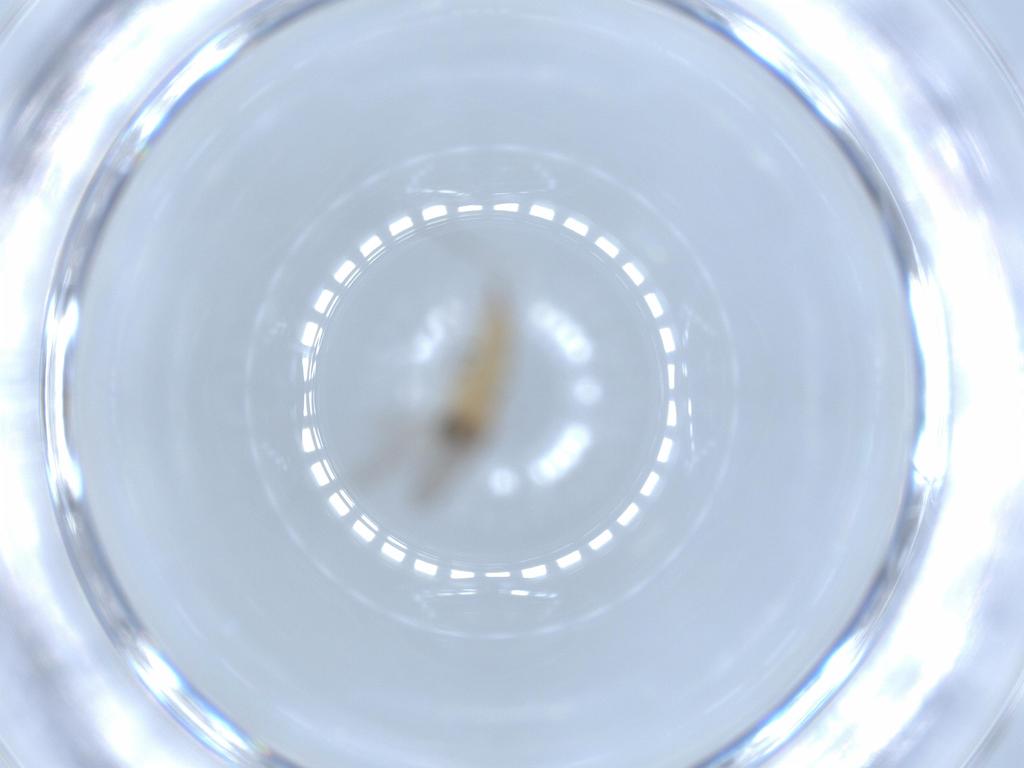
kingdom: Animalia
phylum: Arthropoda
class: Insecta
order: Diptera
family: Sciaridae
